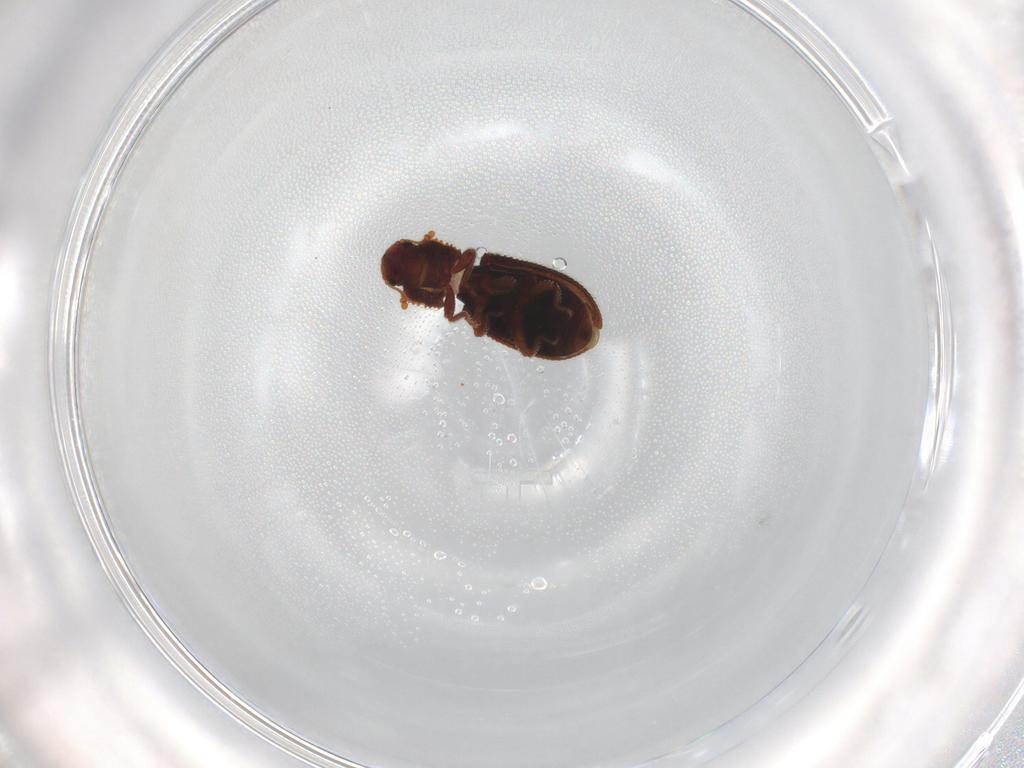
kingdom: Animalia
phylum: Arthropoda
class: Insecta
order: Coleoptera
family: Zopheridae
